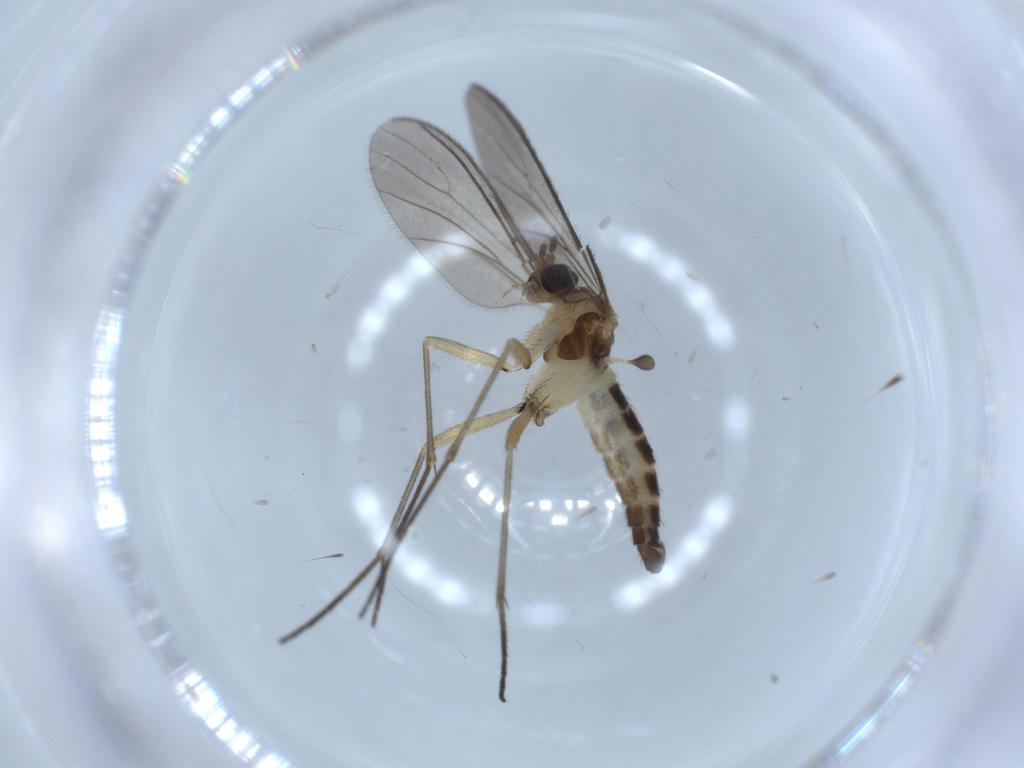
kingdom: Animalia
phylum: Arthropoda
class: Insecta
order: Diptera
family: Sciaridae
